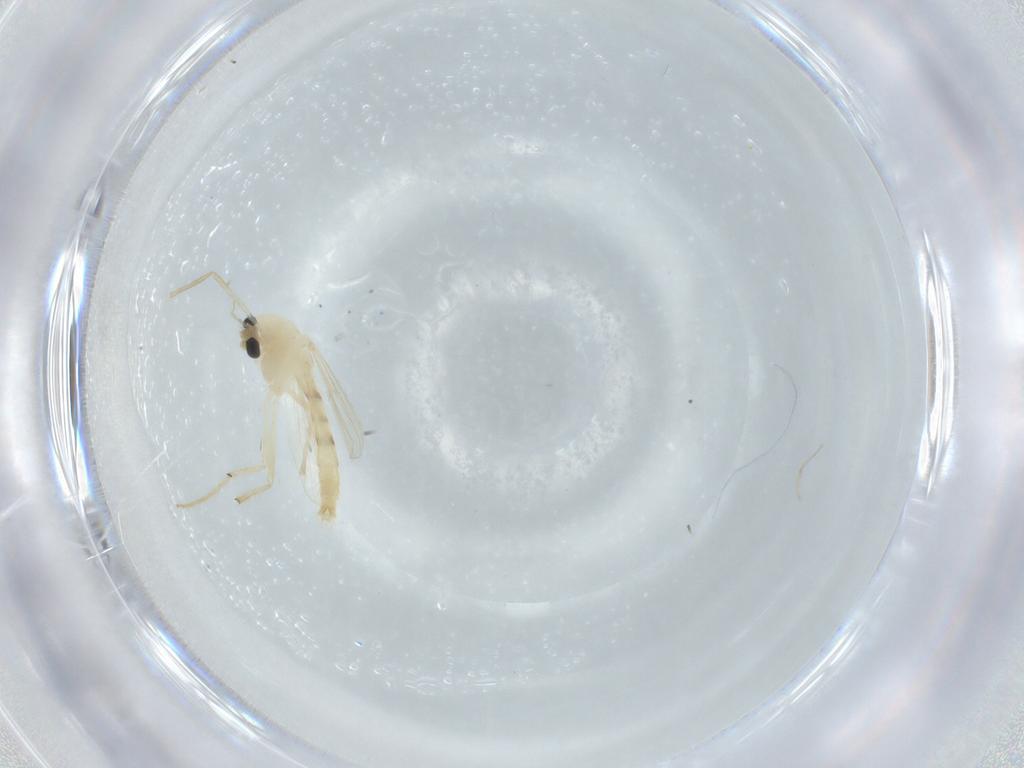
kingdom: Animalia
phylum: Arthropoda
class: Insecta
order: Diptera
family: Chironomidae
